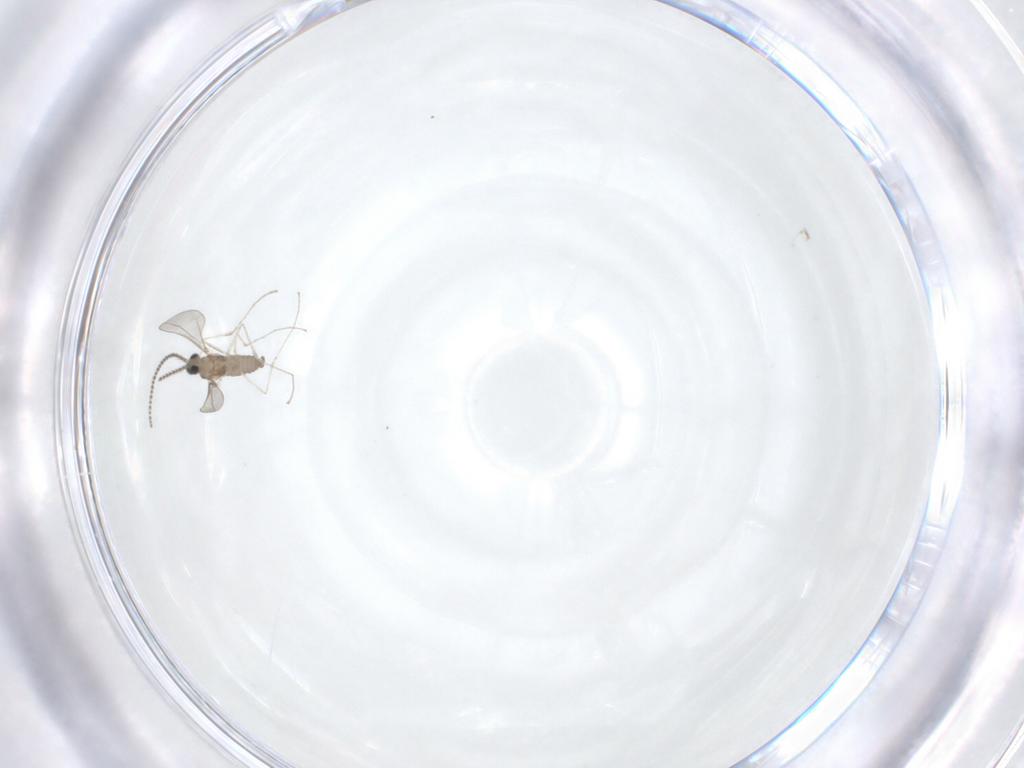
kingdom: Animalia
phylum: Arthropoda
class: Insecta
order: Diptera
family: Cecidomyiidae
